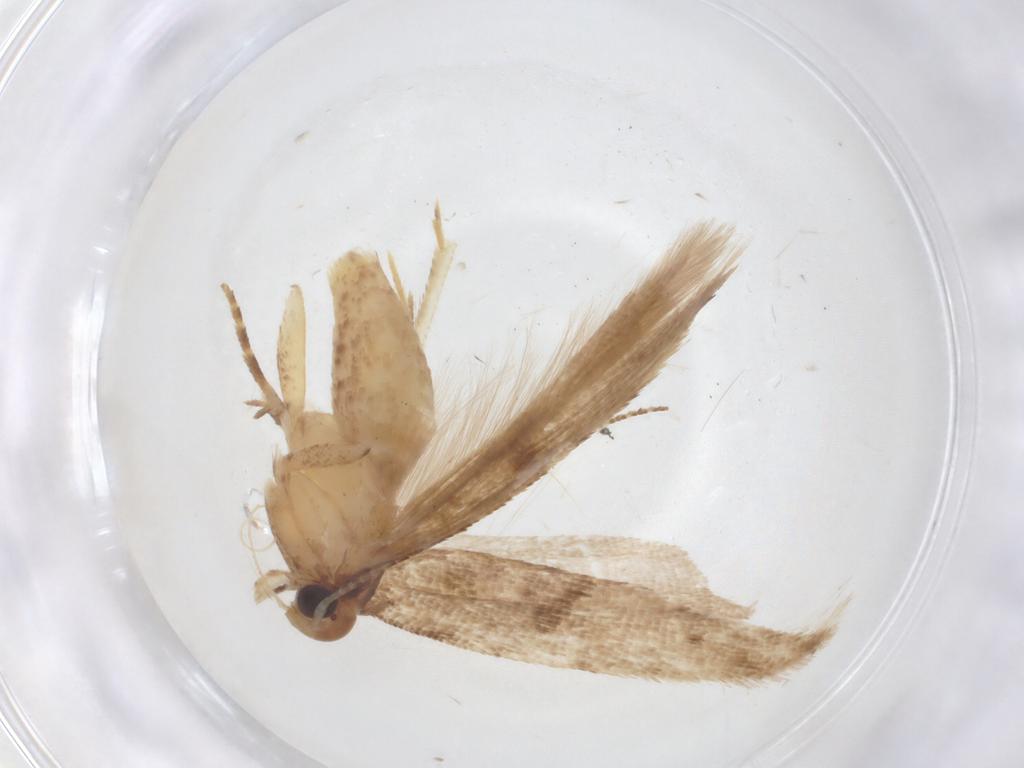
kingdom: Animalia
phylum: Arthropoda
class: Insecta
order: Lepidoptera
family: Gelechiidae
